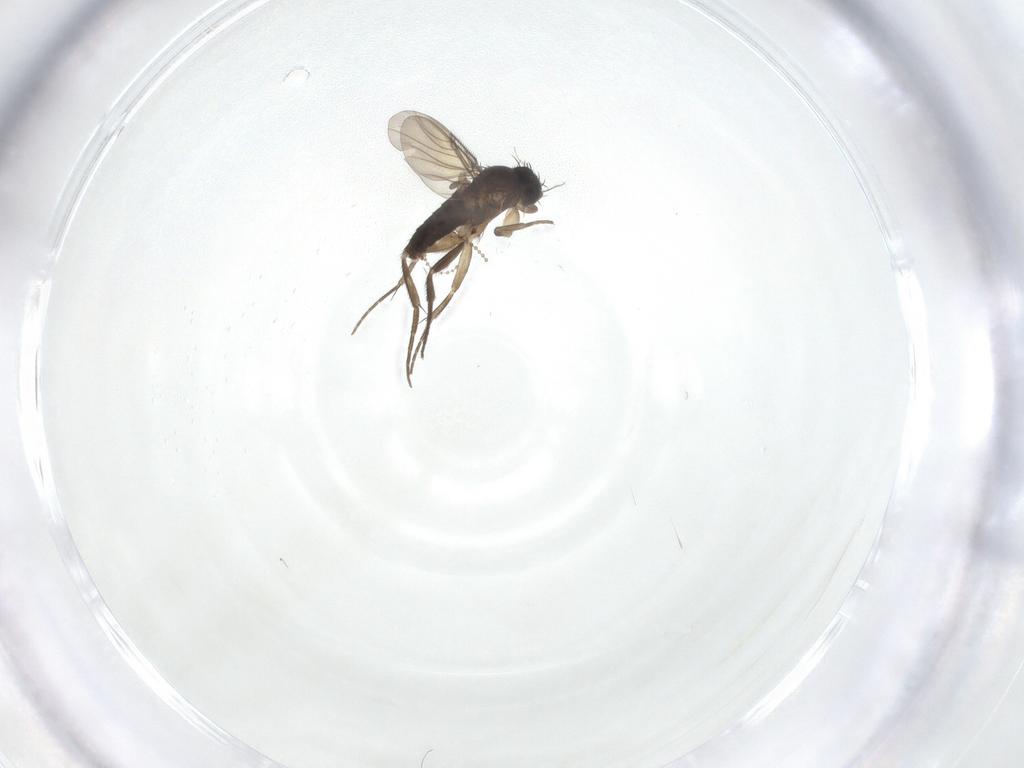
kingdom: Animalia
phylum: Arthropoda
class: Insecta
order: Diptera
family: Phoridae
